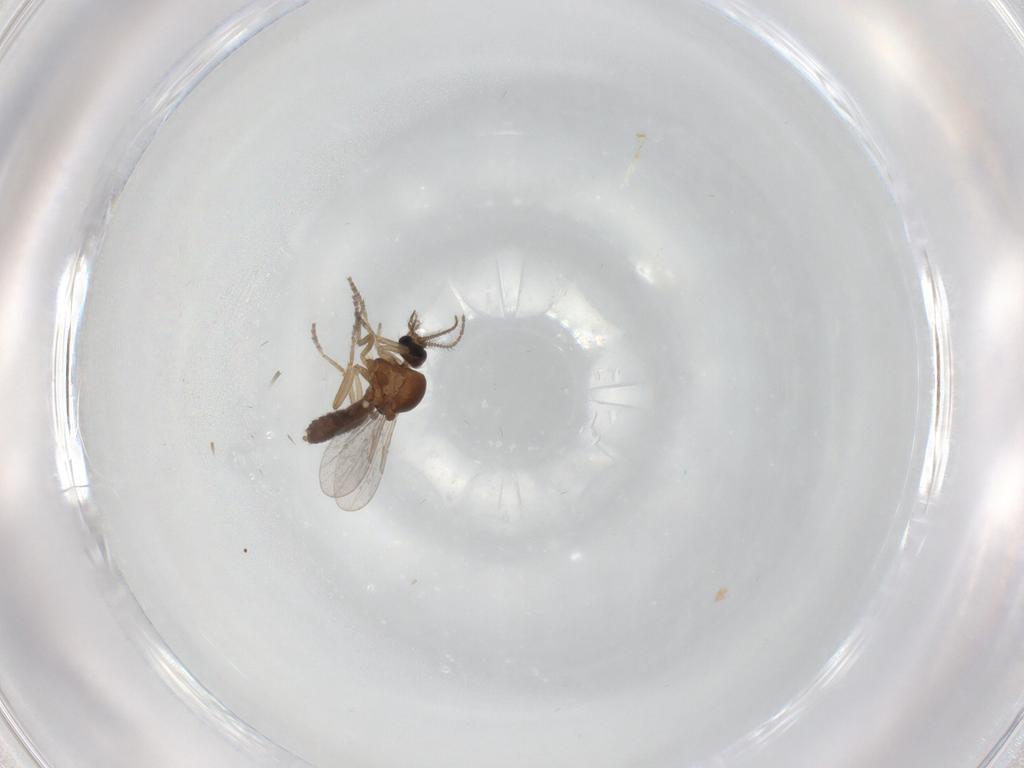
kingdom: Animalia
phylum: Arthropoda
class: Insecta
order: Diptera
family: Ceratopogonidae
